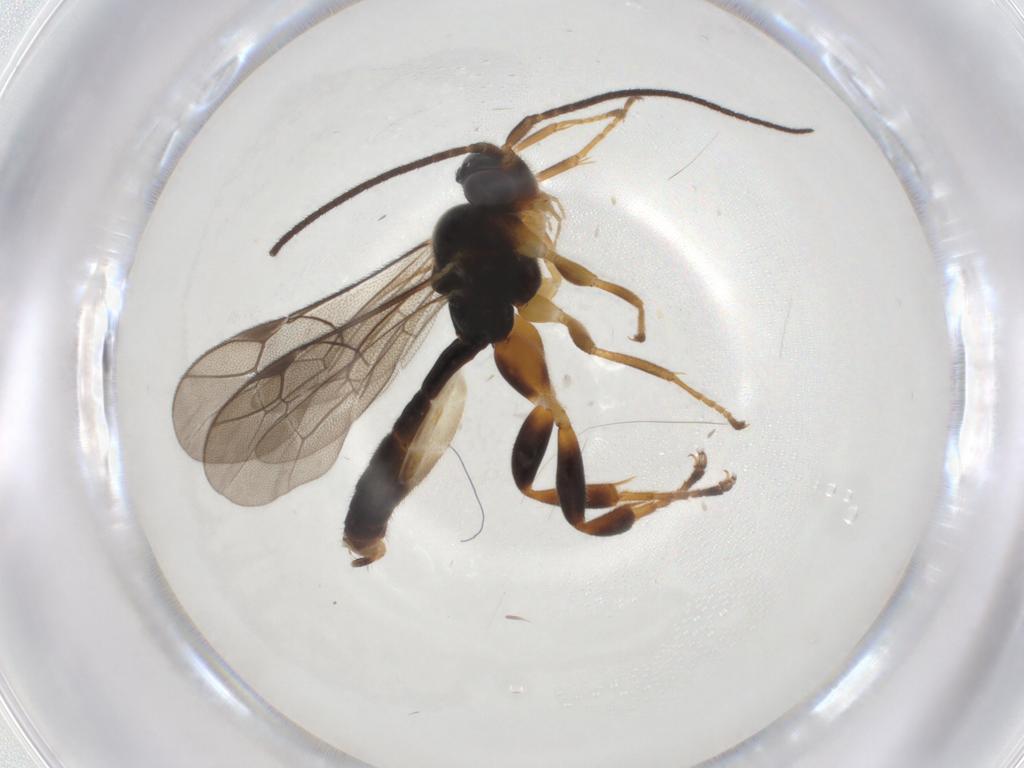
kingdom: Animalia
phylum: Arthropoda
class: Insecta
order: Hymenoptera
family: Ichneumonidae
